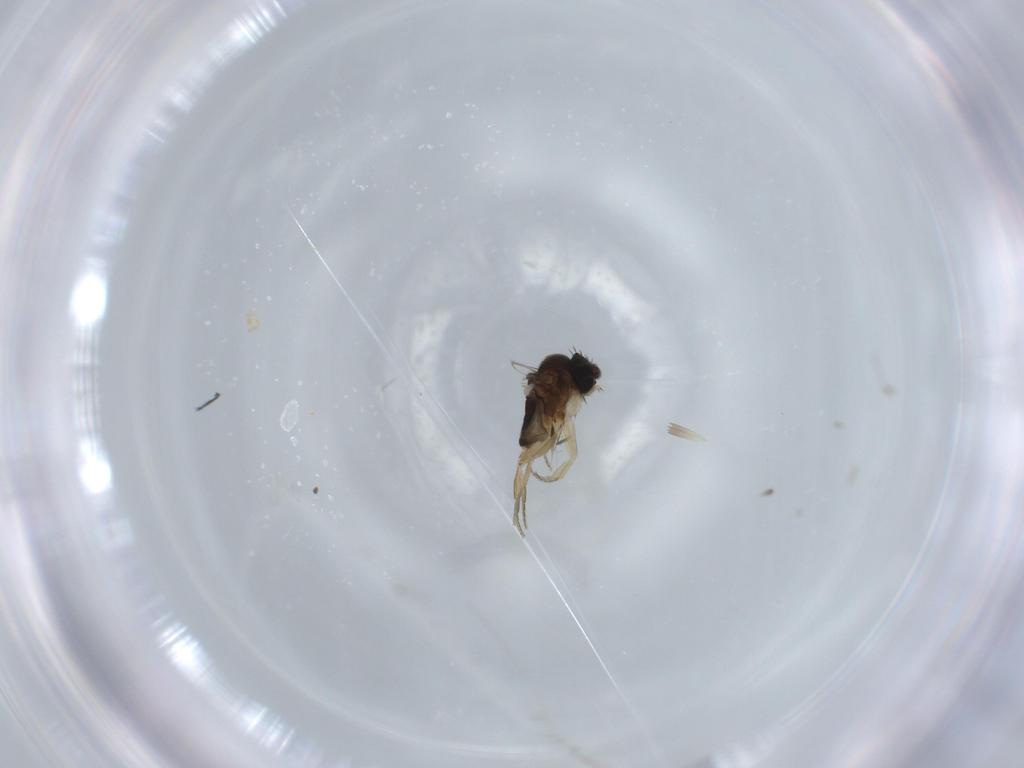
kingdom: Animalia
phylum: Arthropoda
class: Insecta
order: Diptera
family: Phoridae
